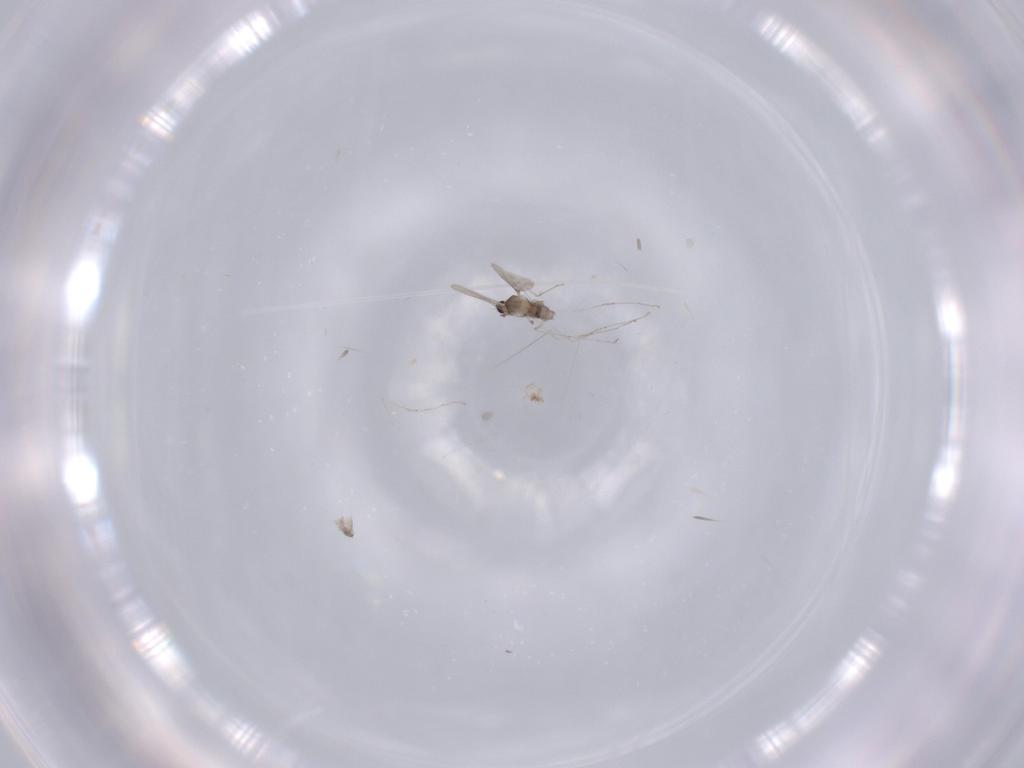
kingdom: Animalia
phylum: Arthropoda
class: Insecta
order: Diptera
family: Cecidomyiidae
